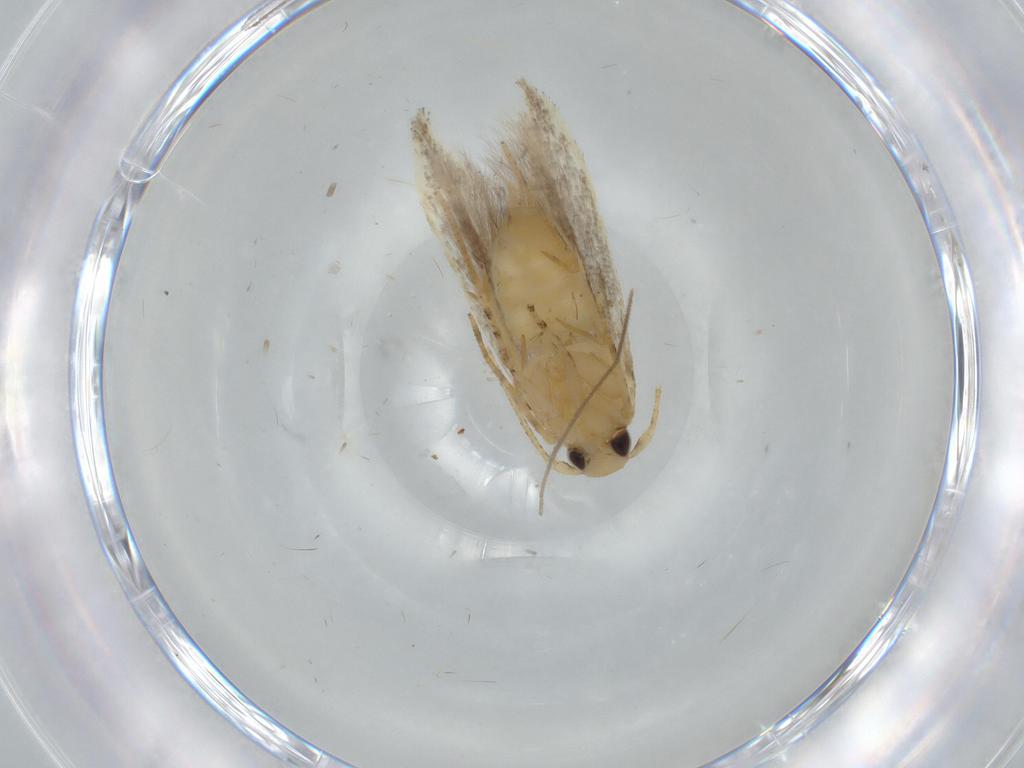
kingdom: Animalia
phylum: Arthropoda
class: Insecta
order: Lepidoptera
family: Gelechiidae
